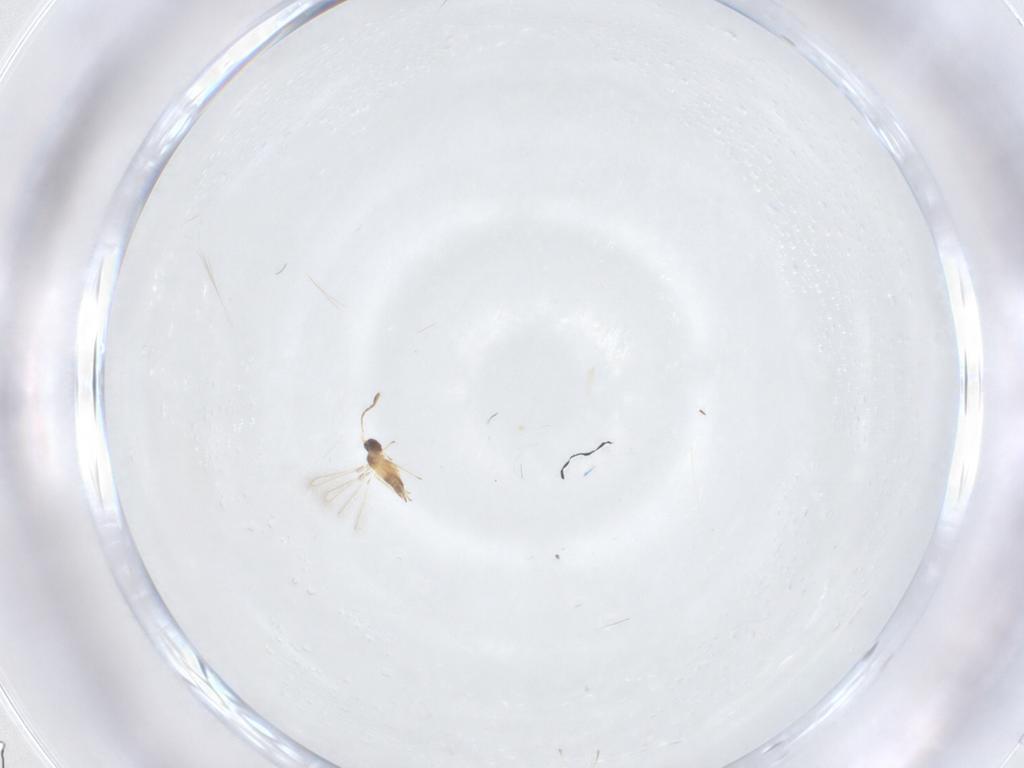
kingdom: Animalia
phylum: Arthropoda
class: Insecta
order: Hymenoptera
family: Mymaridae
